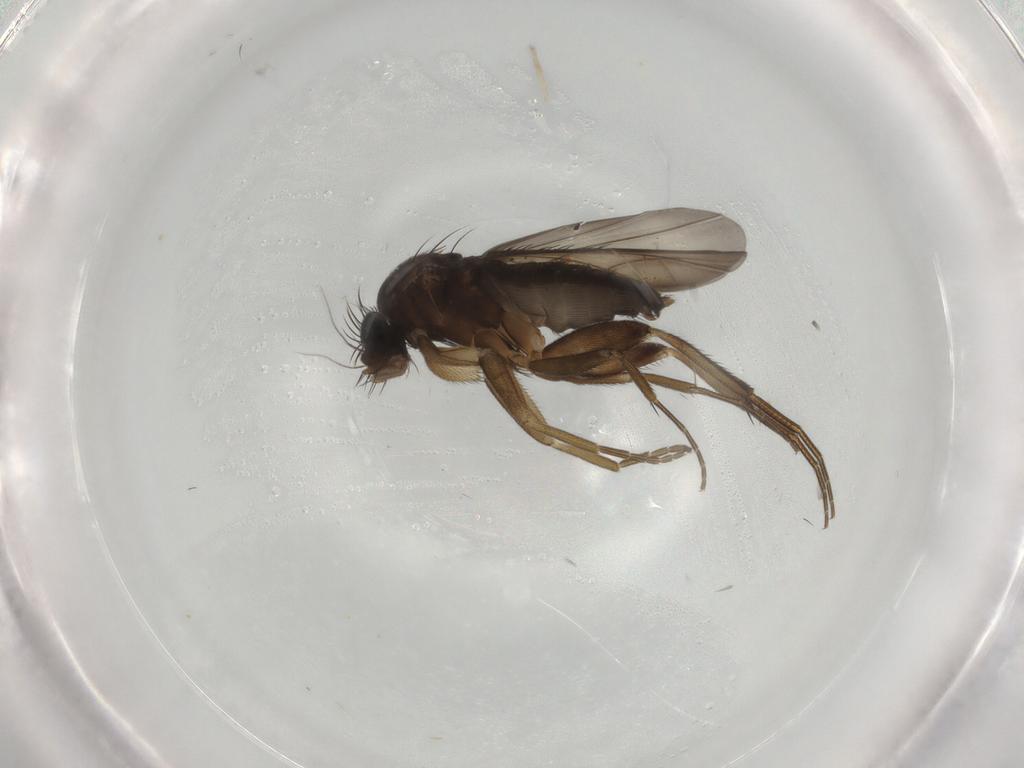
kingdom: Animalia
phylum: Arthropoda
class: Insecta
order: Diptera
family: Phoridae
